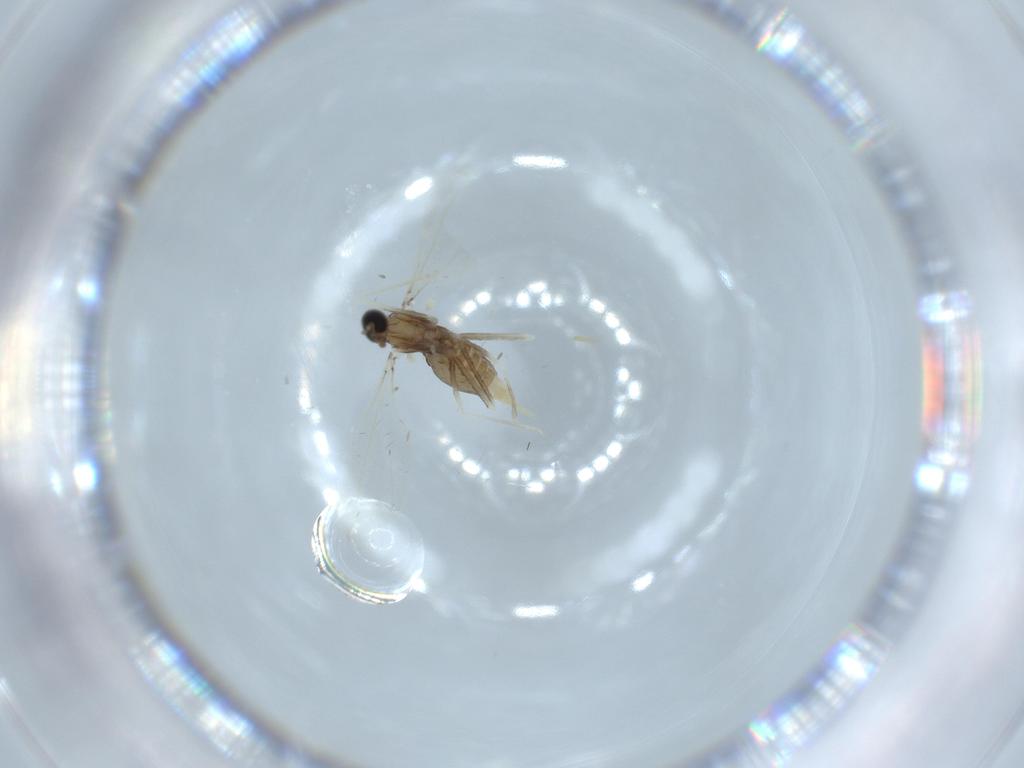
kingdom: Animalia
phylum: Arthropoda
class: Insecta
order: Diptera
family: Cecidomyiidae
